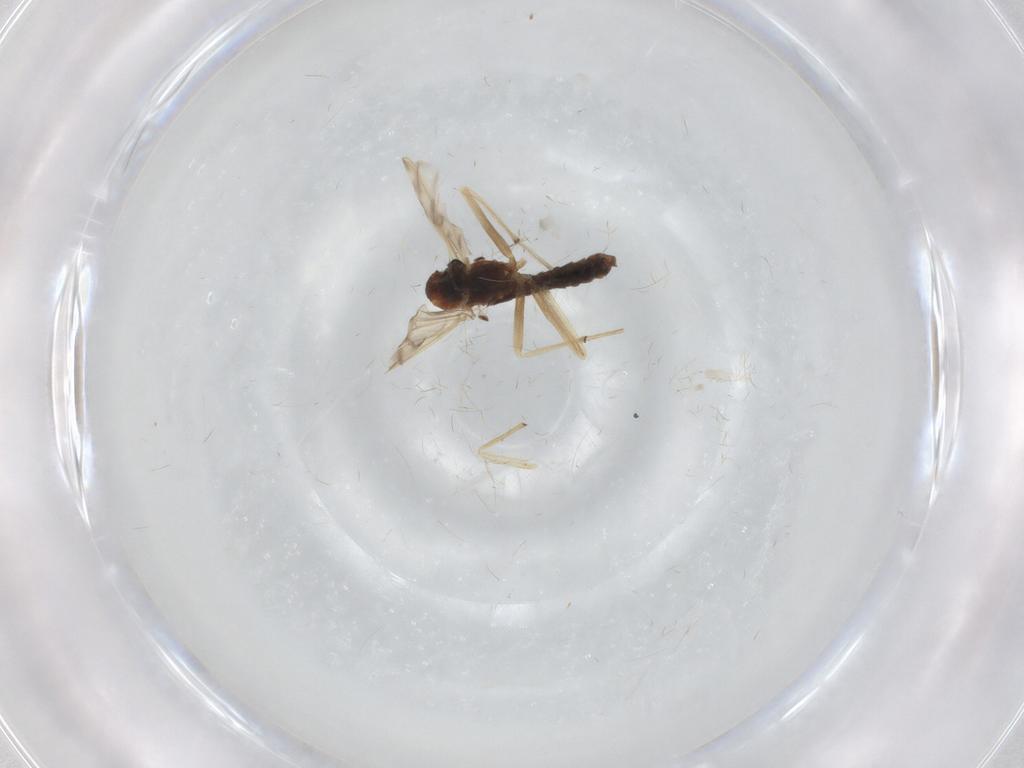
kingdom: Animalia
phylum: Arthropoda
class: Insecta
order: Diptera
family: Chironomidae
